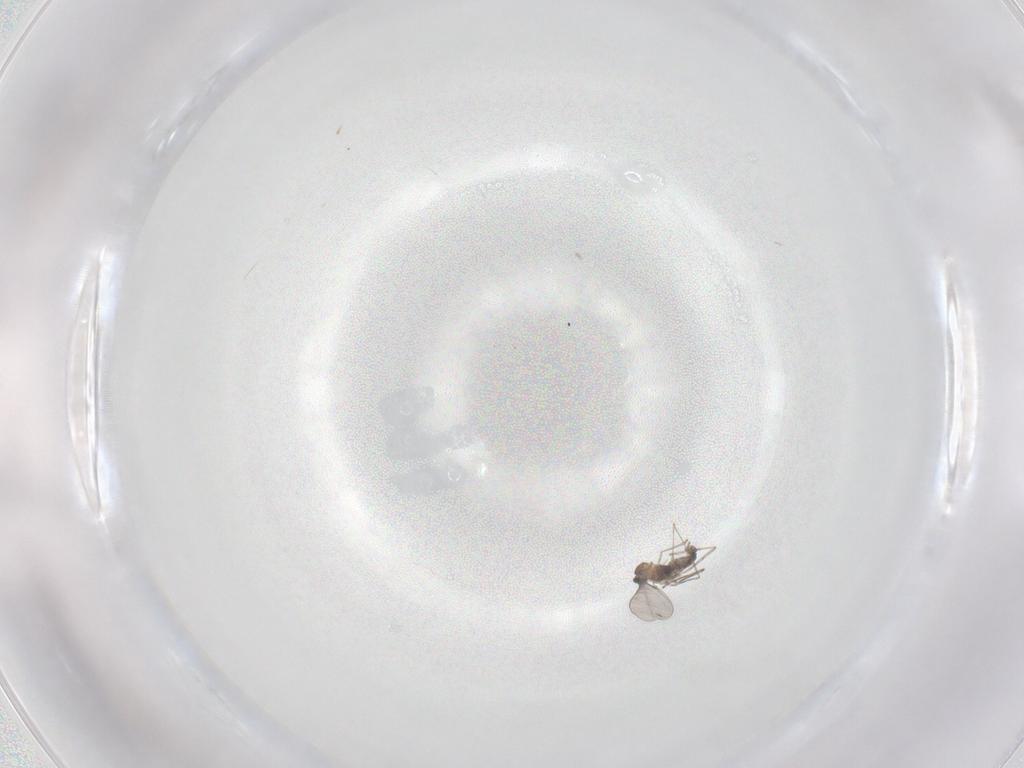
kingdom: Animalia
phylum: Arthropoda
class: Insecta
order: Diptera
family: Cecidomyiidae
